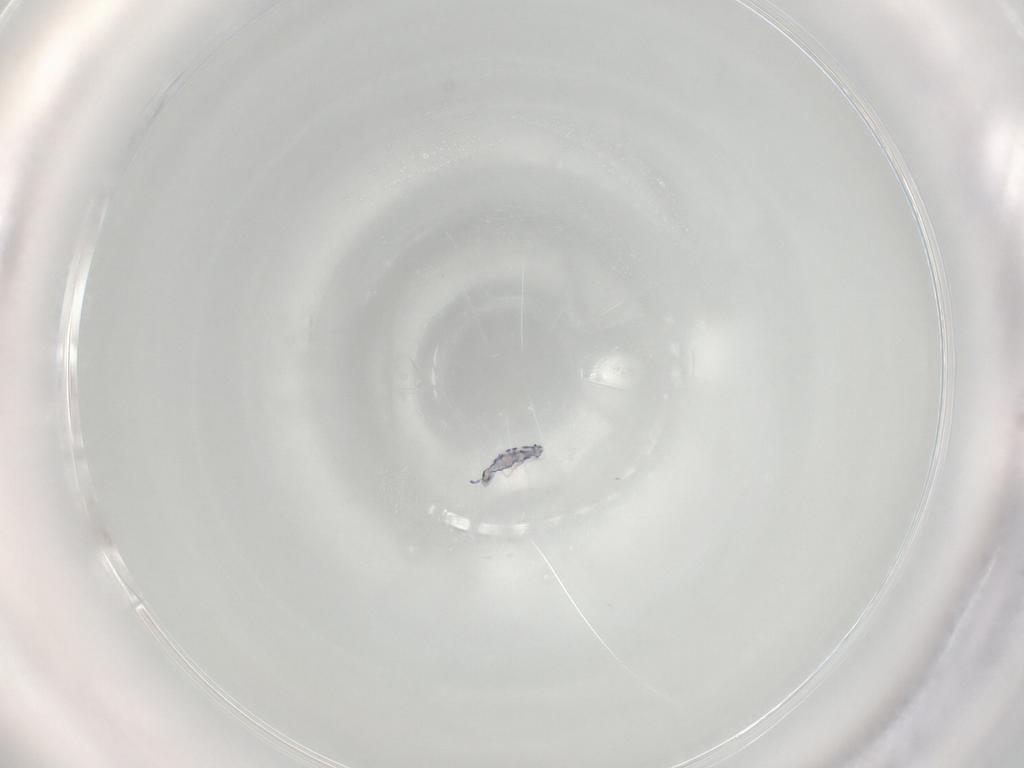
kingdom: Animalia
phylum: Arthropoda
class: Collembola
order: Entomobryomorpha
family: Entomobryidae
